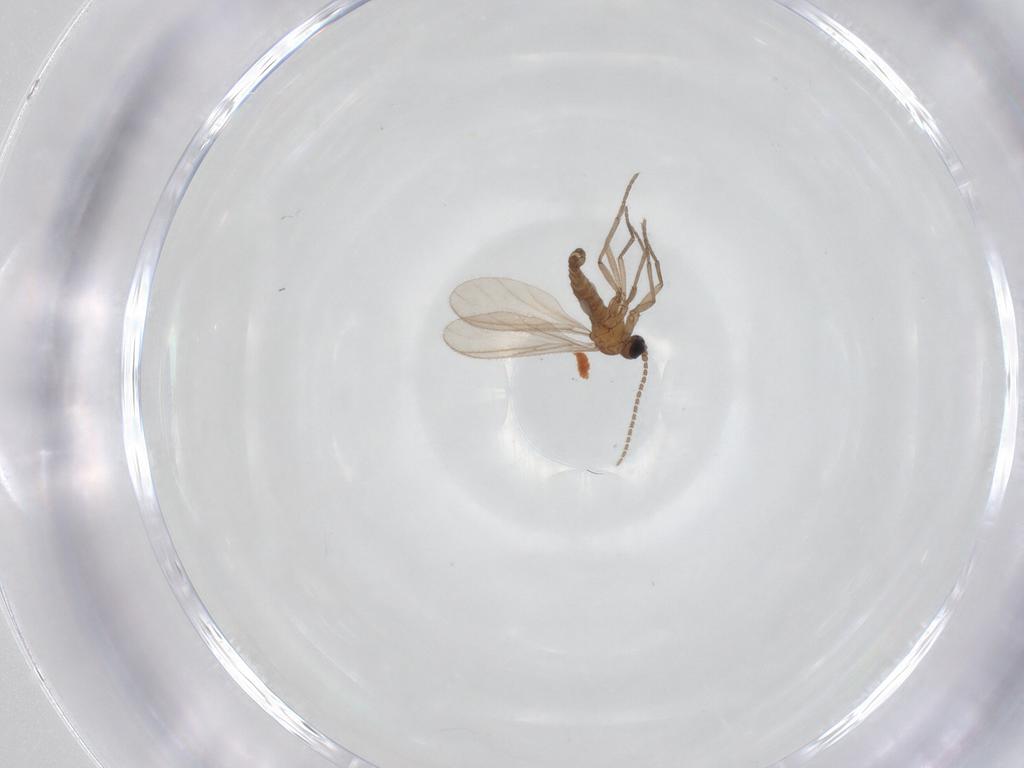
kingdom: Animalia
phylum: Arthropoda
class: Insecta
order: Diptera
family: Sciaridae
